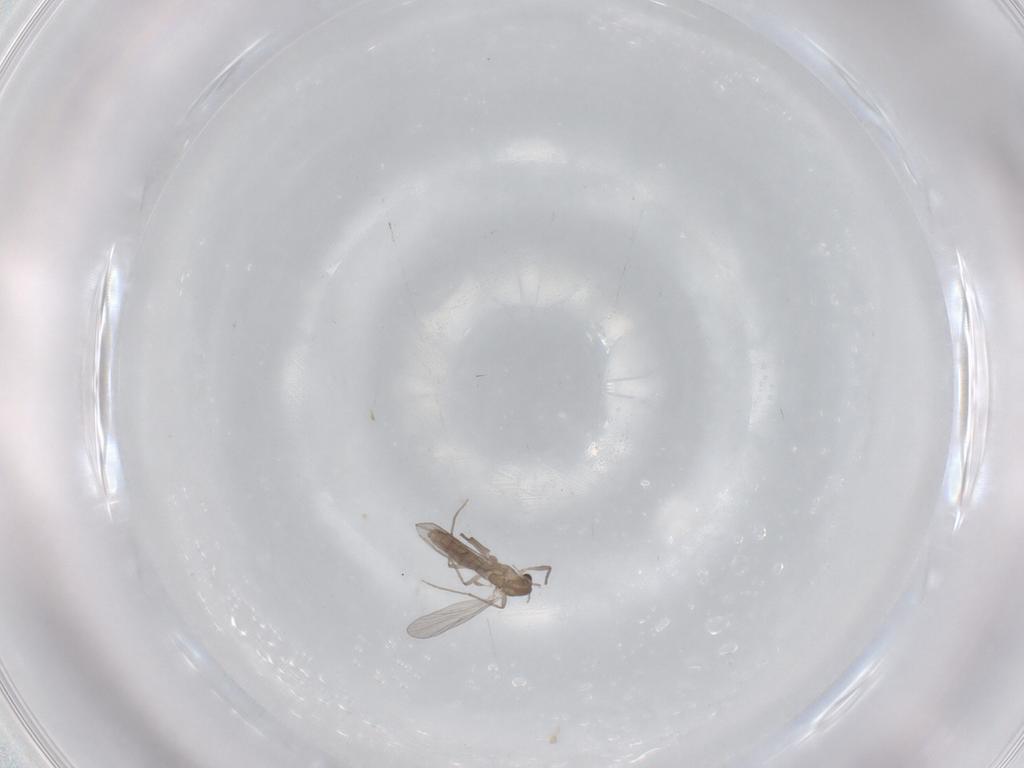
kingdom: Animalia
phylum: Arthropoda
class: Insecta
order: Diptera
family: Chironomidae
